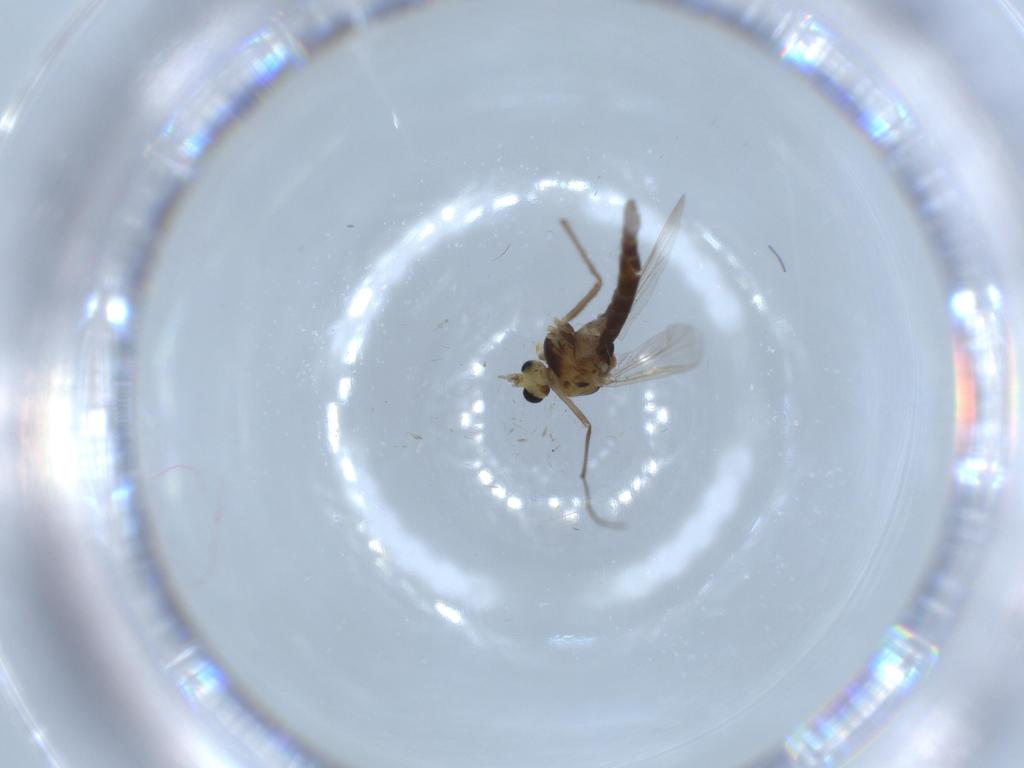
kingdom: Animalia
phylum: Arthropoda
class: Insecta
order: Diptera
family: Chironomidae
